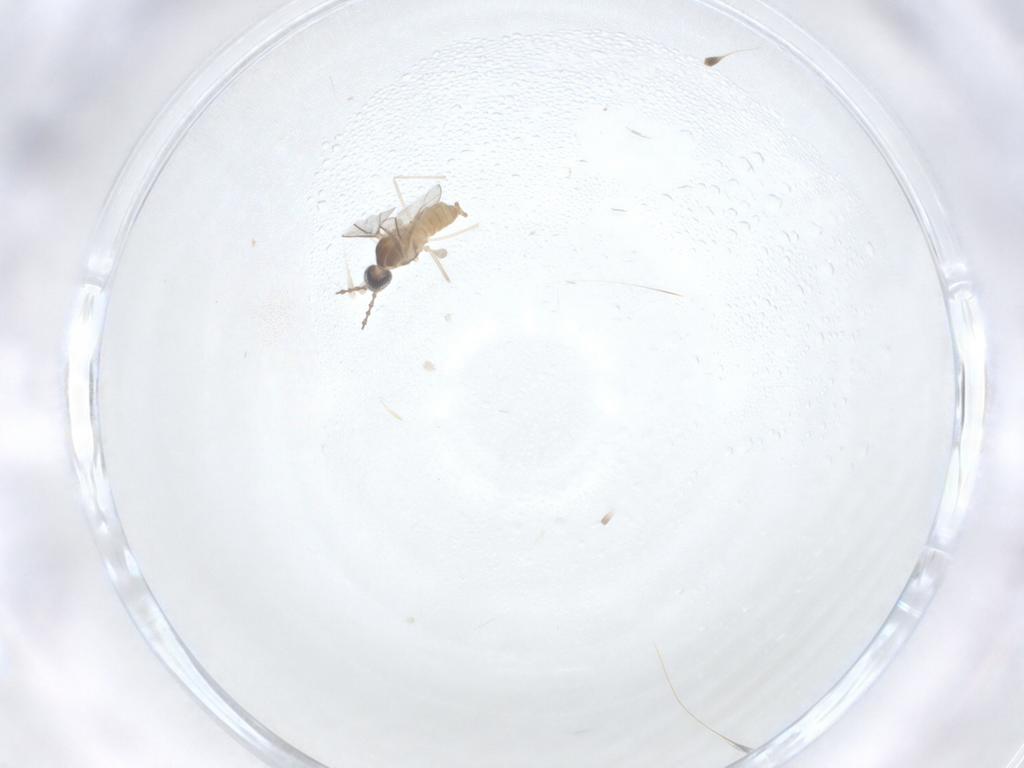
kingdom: Animalia
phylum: Arthropoda
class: Insecta
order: Diptera
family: Cecidomyiidae
